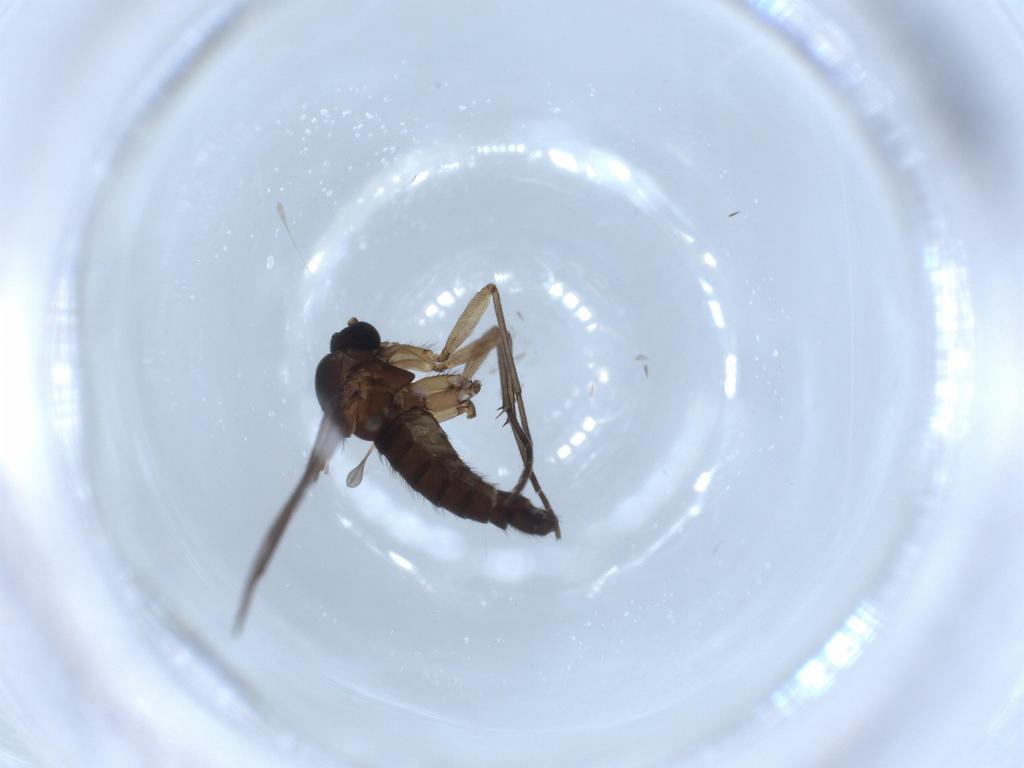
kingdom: Animalia
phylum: Arthropoda
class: Insecta
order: Diptera
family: Sciaridae
